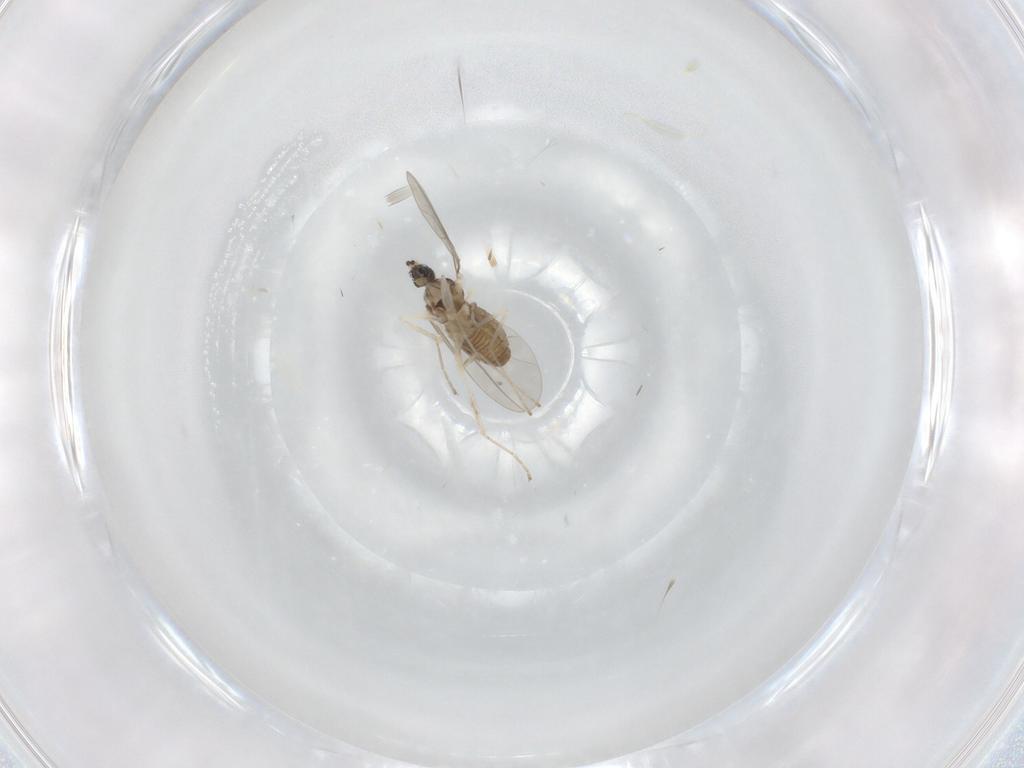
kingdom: Animalia
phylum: Arthropoda
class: Insecta
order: Diptera
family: Cecidomyiidae
